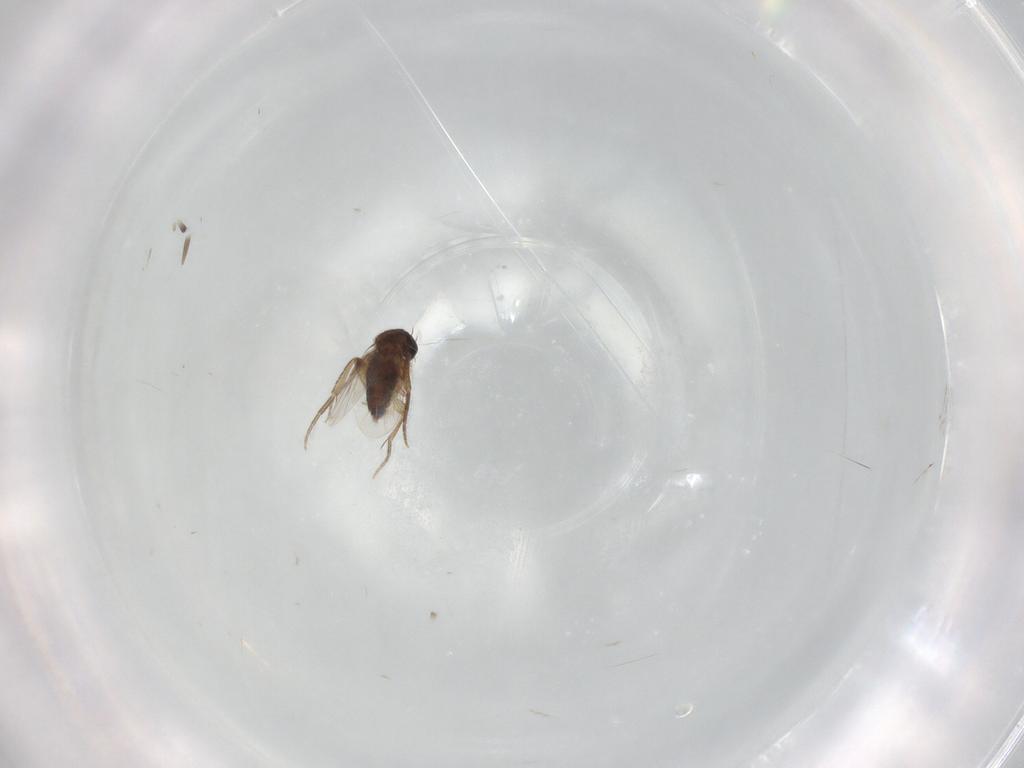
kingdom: Animalia
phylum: Arthropoda
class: Insecta
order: Diptera
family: Phoridae
